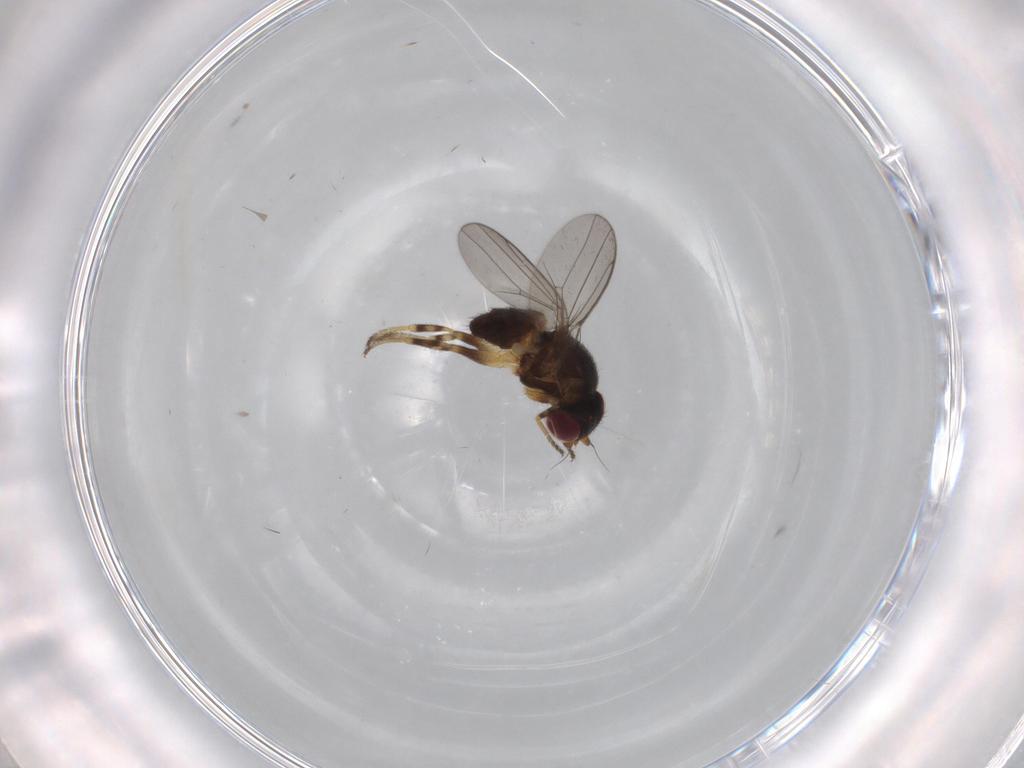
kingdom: Animalia
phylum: Arthropoda
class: Insecta
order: Diptera
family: Chloropidae
